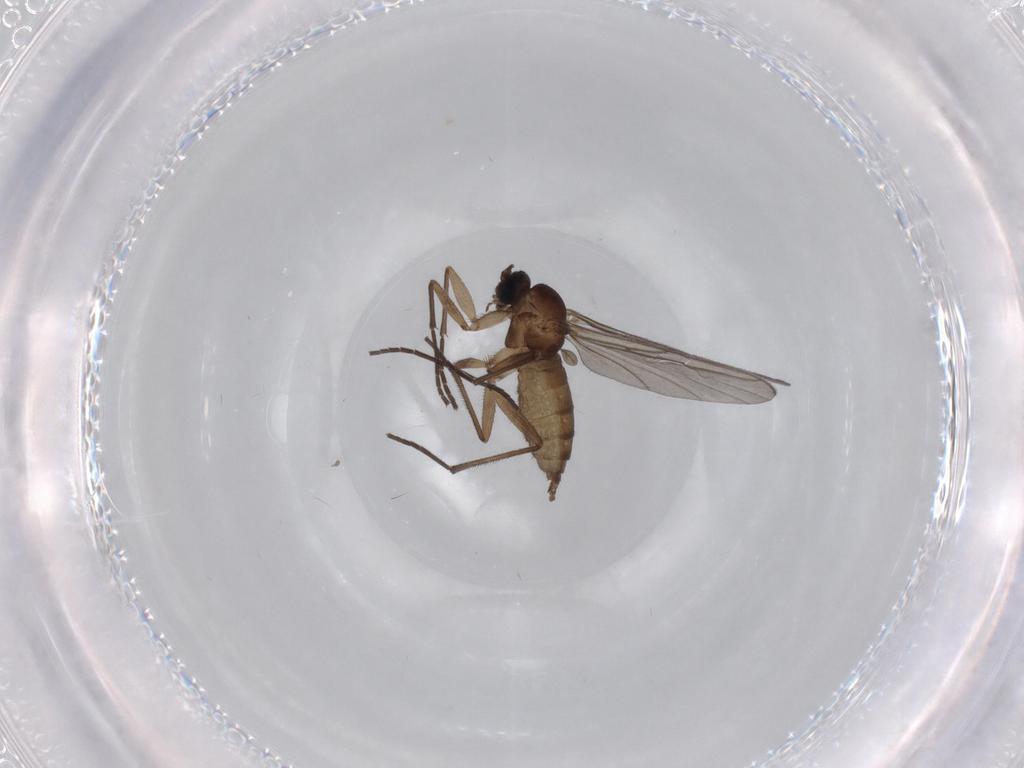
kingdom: Animalia
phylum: Arthropoda
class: Insecta
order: Diptera
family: Sciaridae
